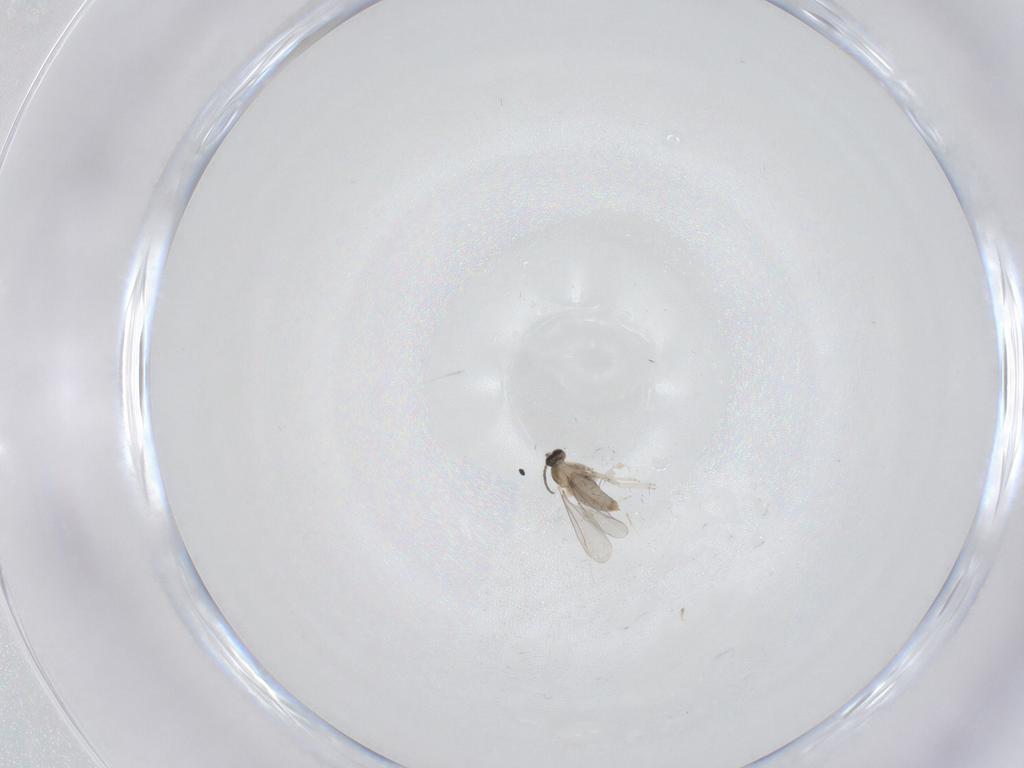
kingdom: Animalia
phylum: Arthropoda
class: Insecta
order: Diptera
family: Cecidomyiidae
